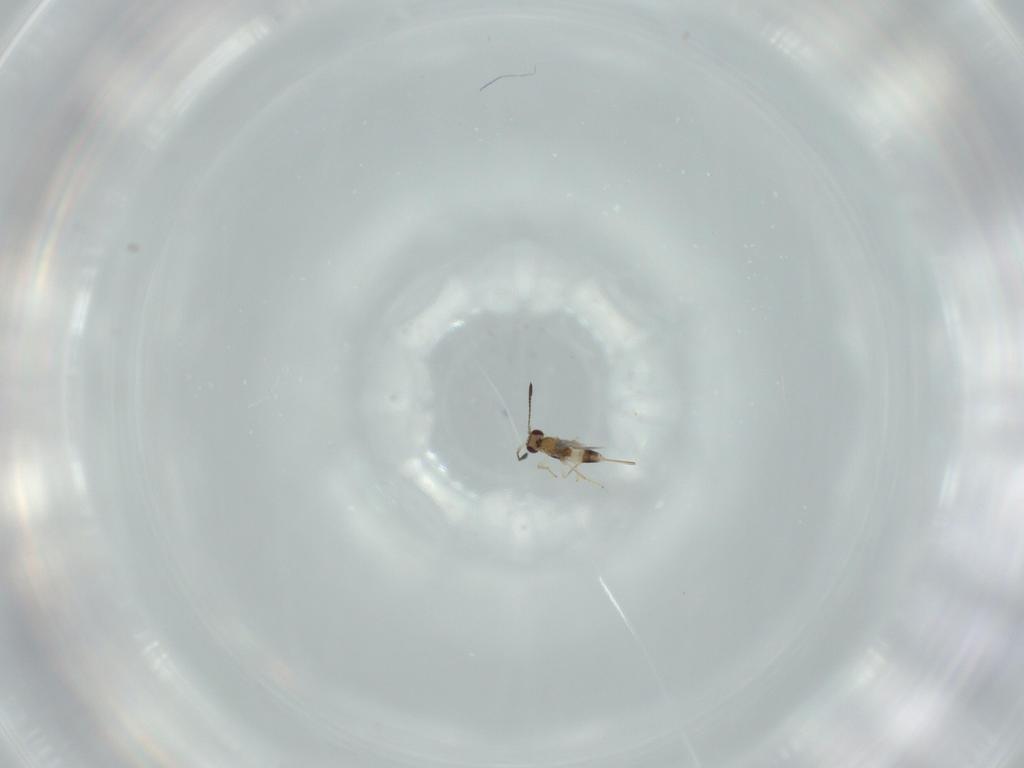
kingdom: Animalia
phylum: Arthropoda
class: Insecta
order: Hymenoptera
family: Mymaridae
